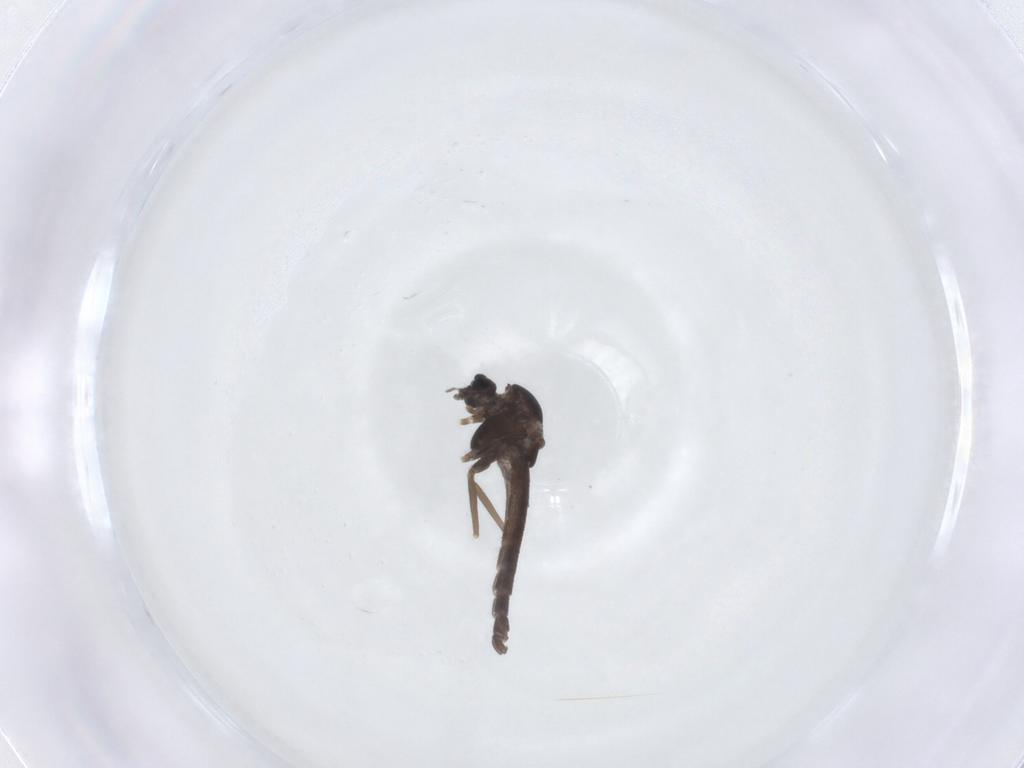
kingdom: Animalia
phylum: Arthropoda
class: Insecta
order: Diptera
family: Chironomidae
